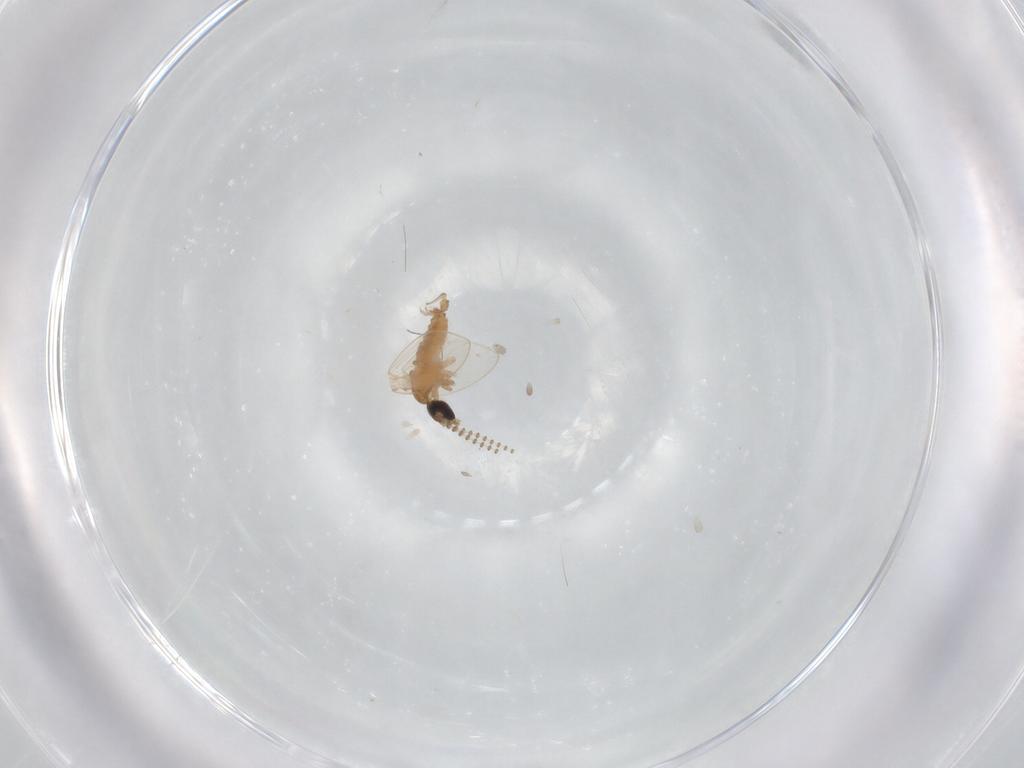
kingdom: Animalia
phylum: Arthropoda
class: Insecta
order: Diptera
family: Psychodidae
